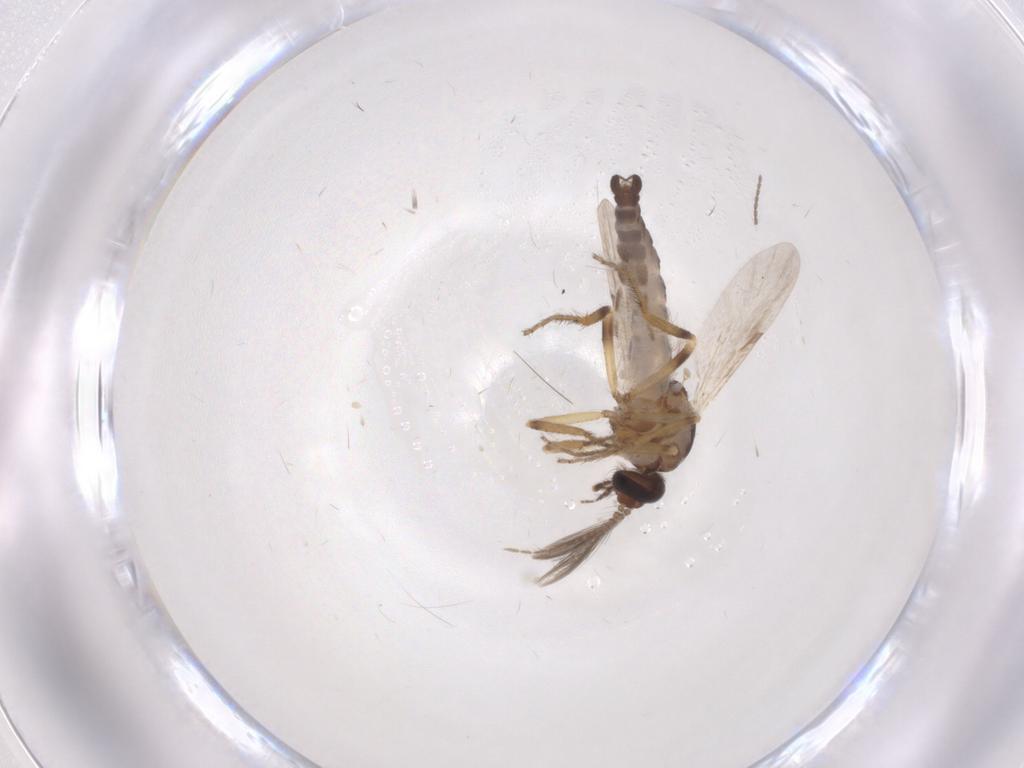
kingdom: Animalia
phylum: Arthropoda
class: Insecta
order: Diptera
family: Ceratopogonidae
